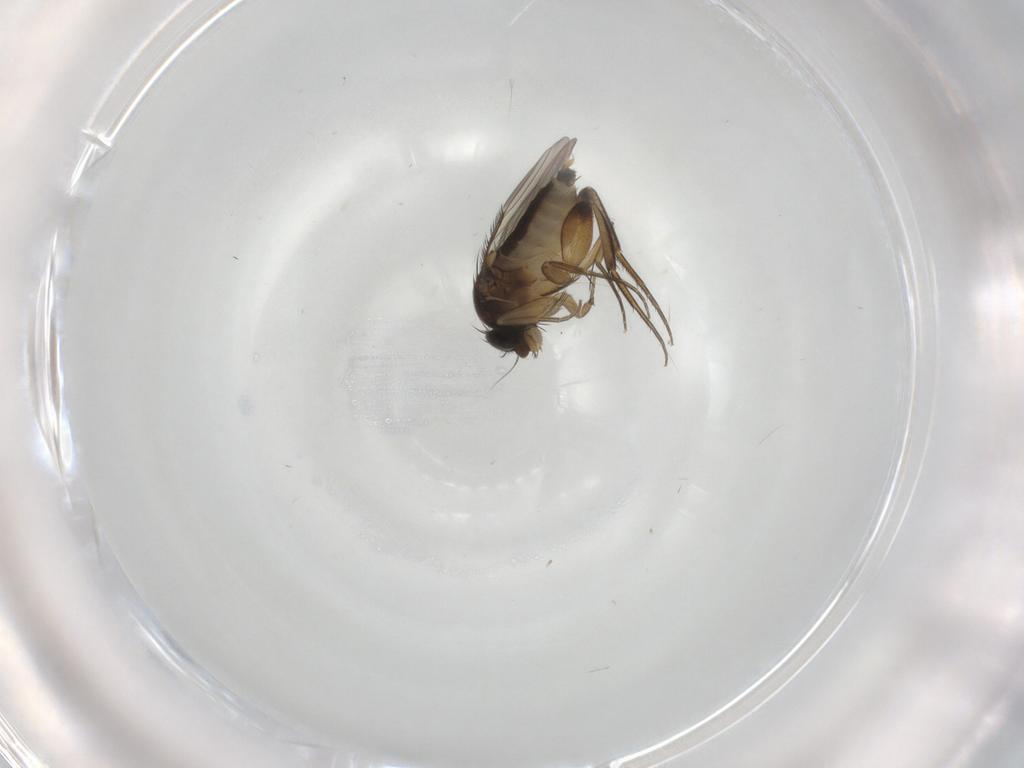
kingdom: Animalia
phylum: Arthropoda
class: Insecta
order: Diptera
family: Phoridae
